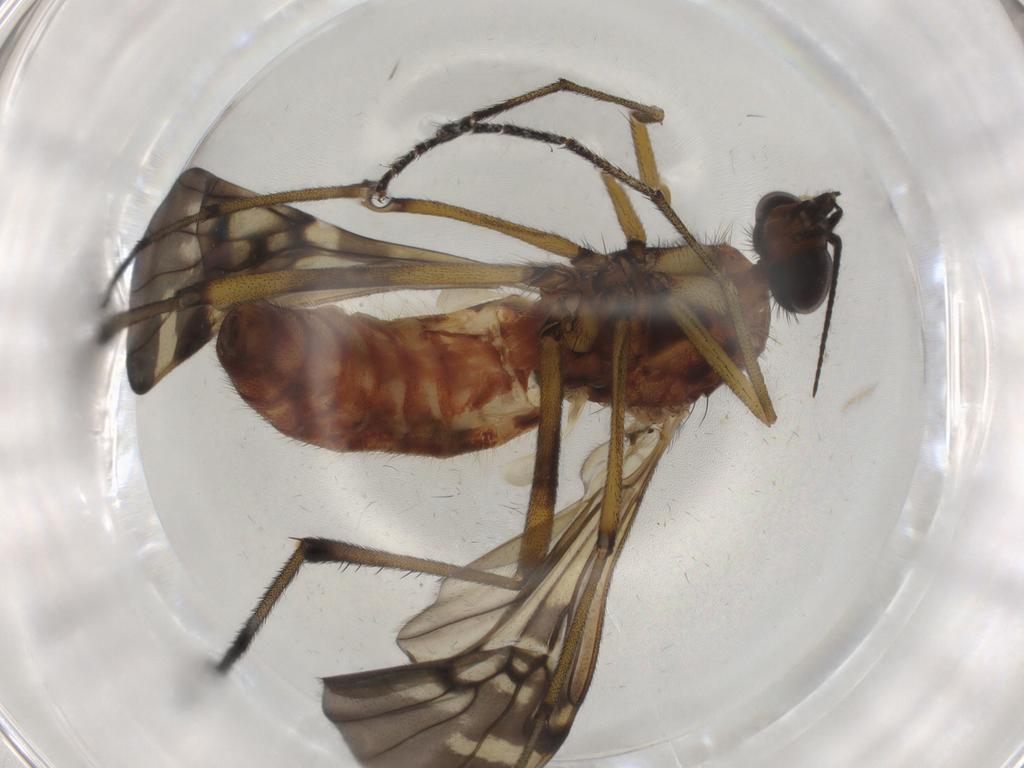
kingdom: Animalia
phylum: Arthropoda
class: Insecta
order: Diptera
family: Phoridae
